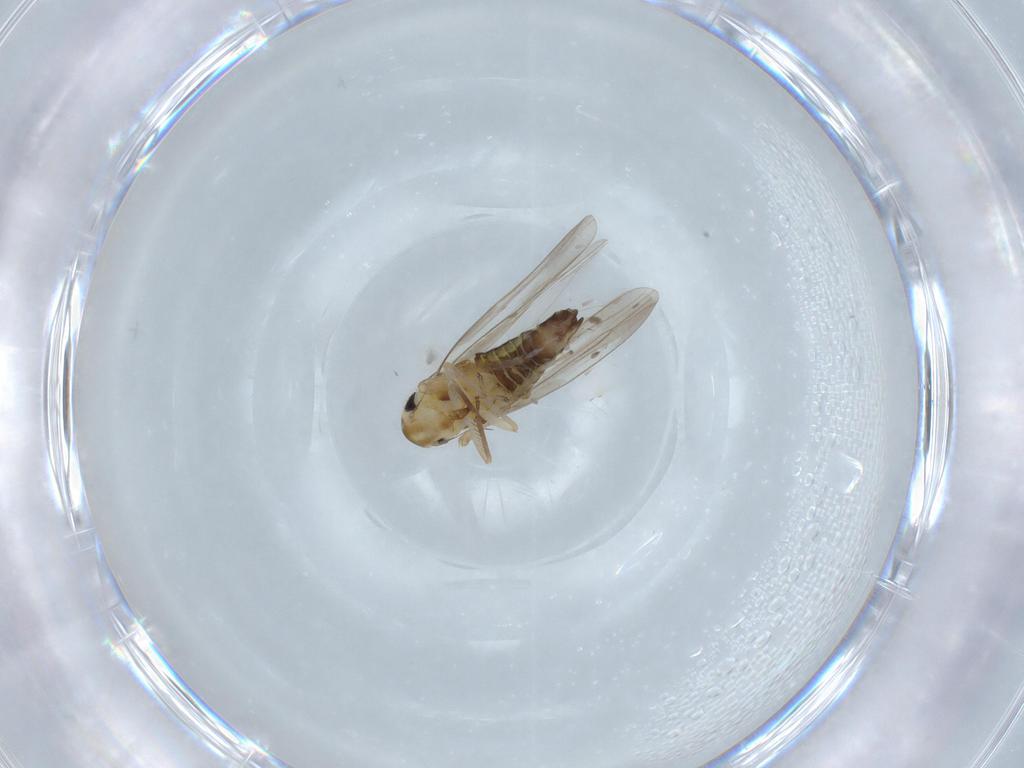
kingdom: Animalia
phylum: Arthropoda
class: Insecta
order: Hemiptera
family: Cicadellidae
